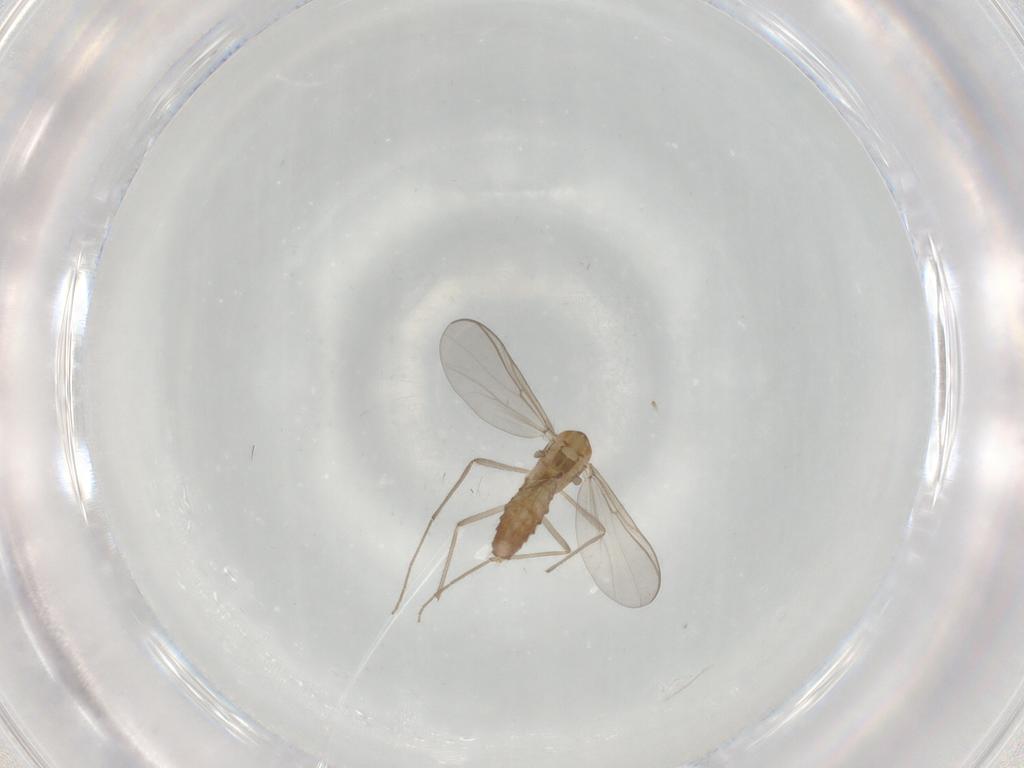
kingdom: Animalia
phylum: Arthropoda
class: Insecta
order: Diptera
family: Chironomidae
